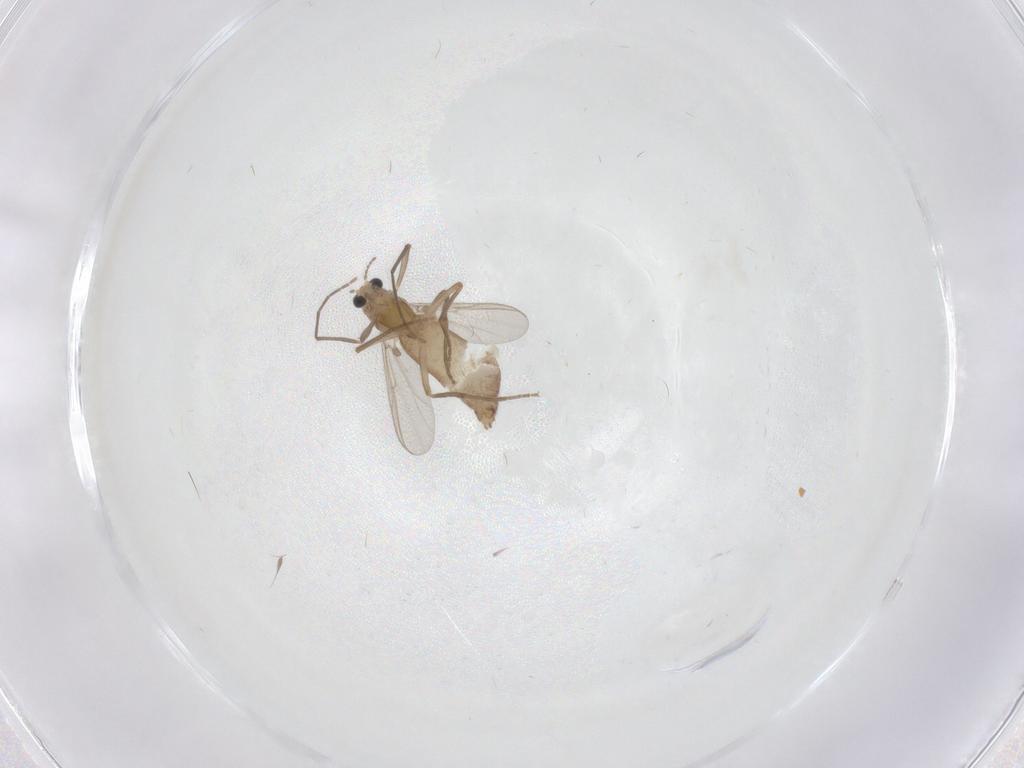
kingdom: Animalia
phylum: Arthropoda
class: Insecta
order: Diptera
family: Chironomidae
